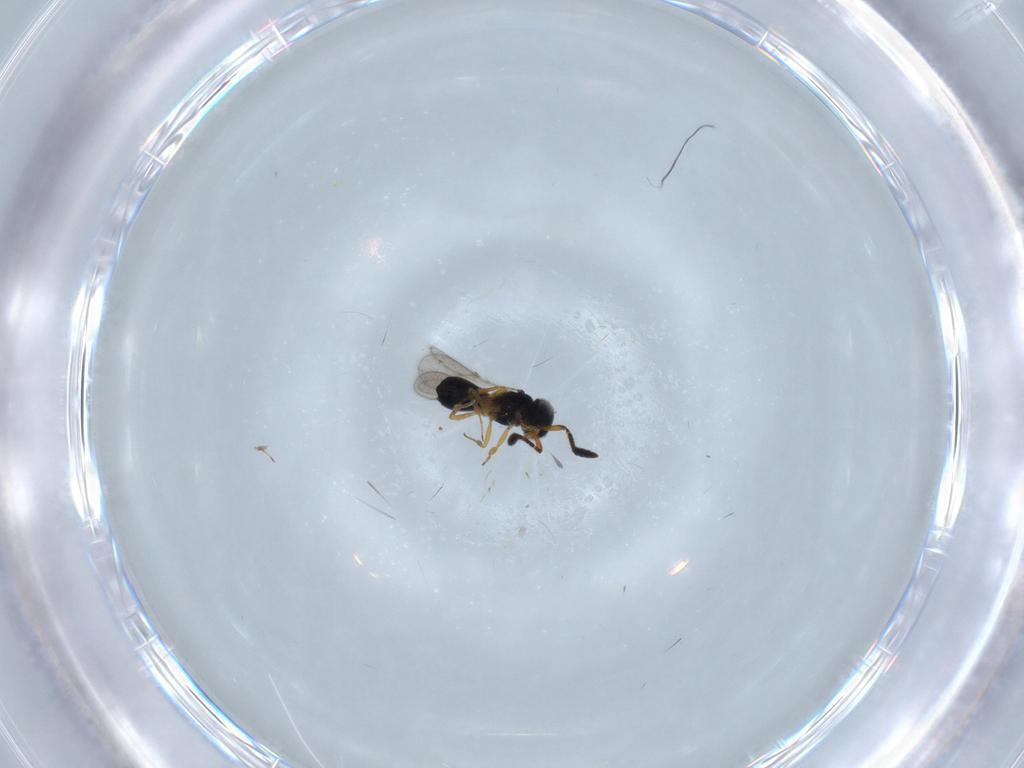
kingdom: Animalia
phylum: Arthropoda
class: Insecta
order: Hymenoptera
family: Scelionidae
